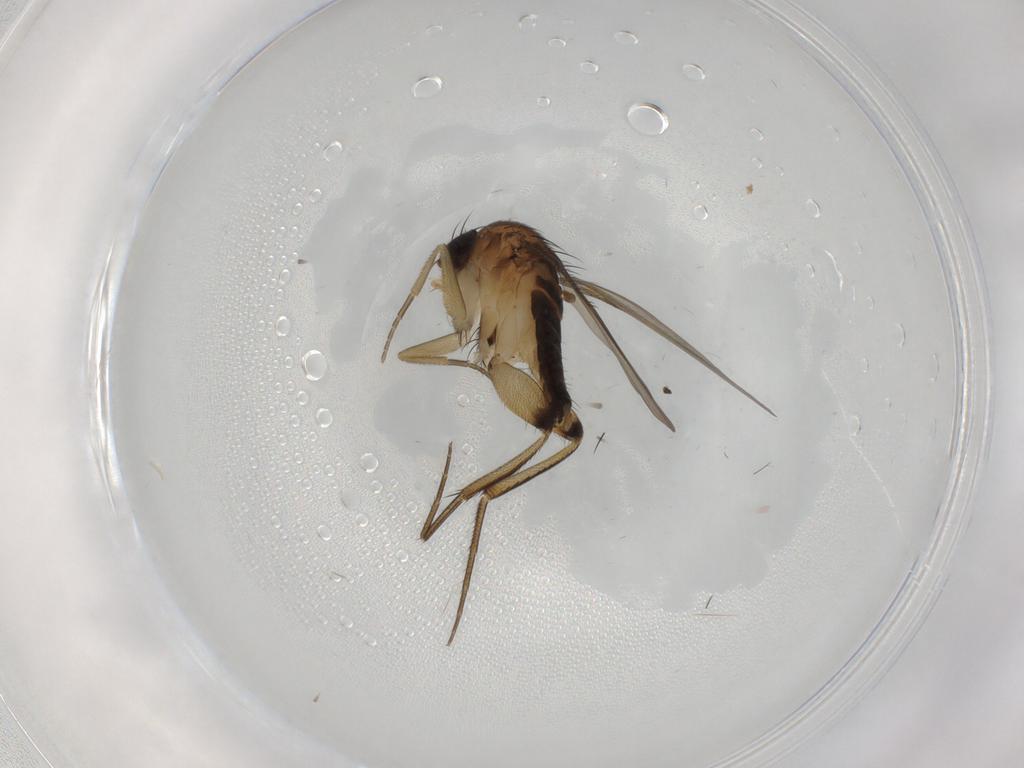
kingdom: Animalia
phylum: Arthropoda
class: Insecta
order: Diptera
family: Phoridae
